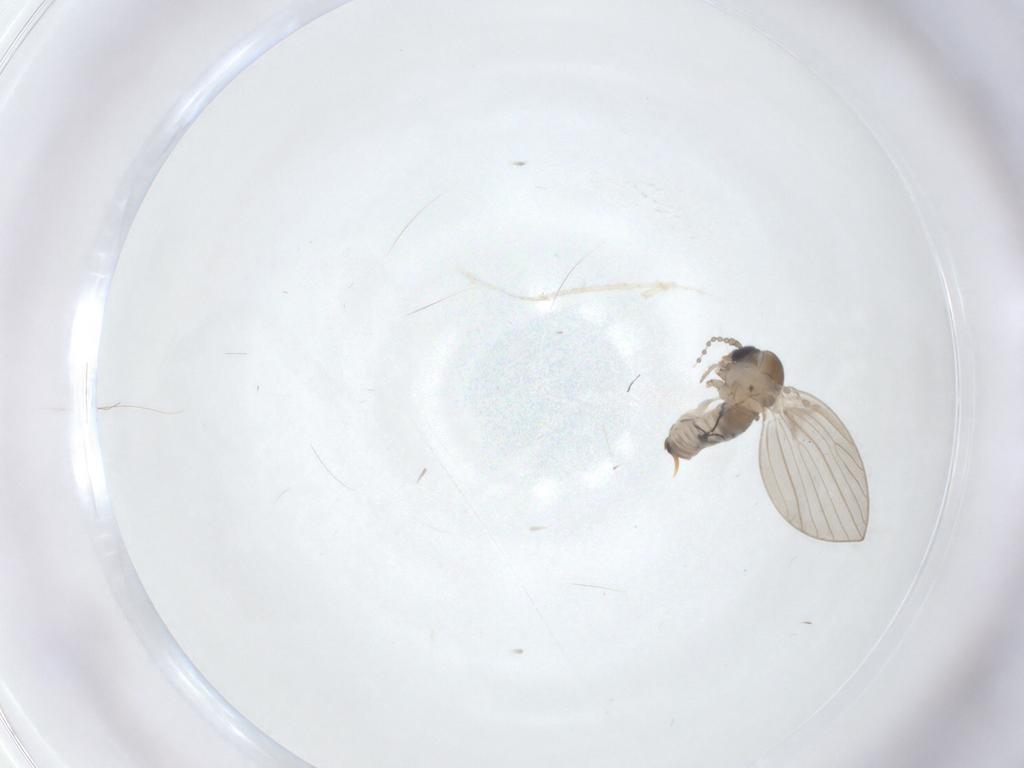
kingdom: Animalia
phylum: Arthropoda
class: Insecta
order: Diptera
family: Psychodidae
